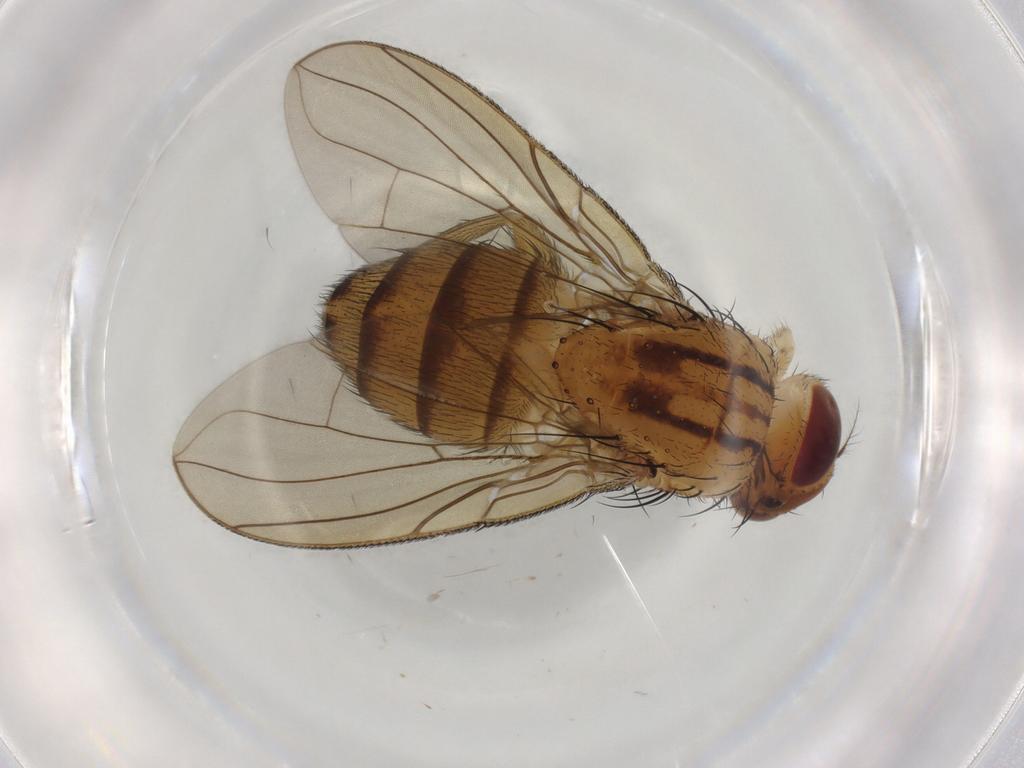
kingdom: Animalia
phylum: Arthropoda
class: Insecta
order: Diptera
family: Calliphoridae
